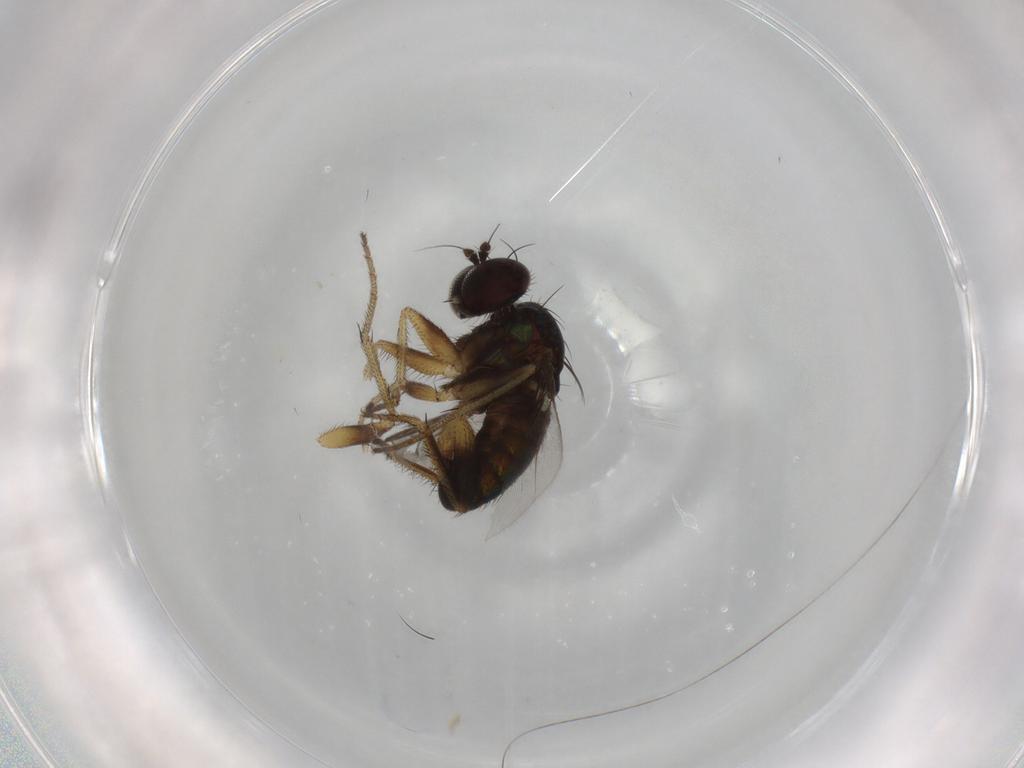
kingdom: Animalia
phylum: Arthropoda
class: Insecta
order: Diptera
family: Dolichopodidae
